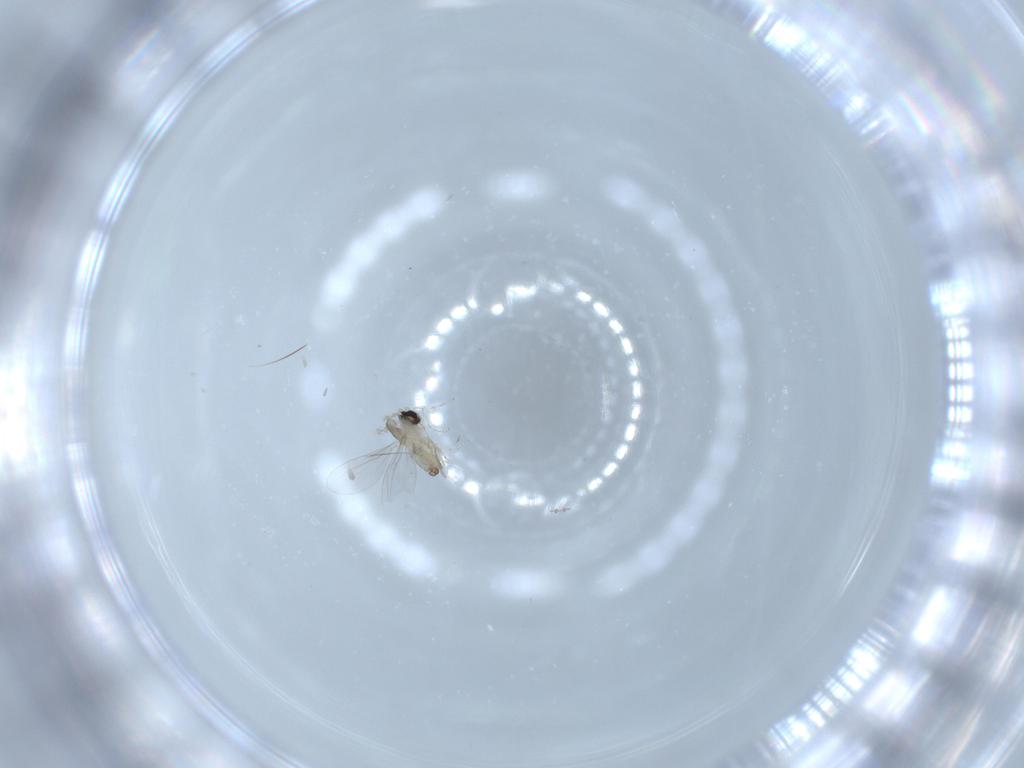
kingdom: Animalia
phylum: Arthropoda
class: Insecta
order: Diptera
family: Cecidomyiidae
